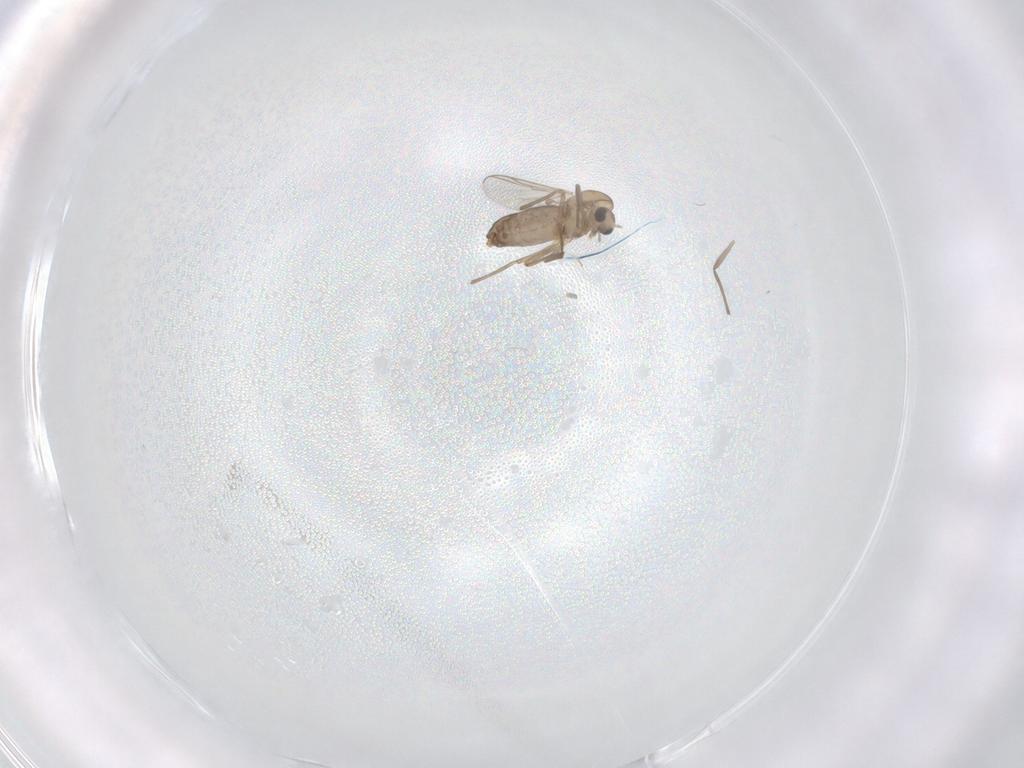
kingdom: Animalia
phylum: Arthropoda
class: Insecta
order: Diptera
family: Chironomidae
